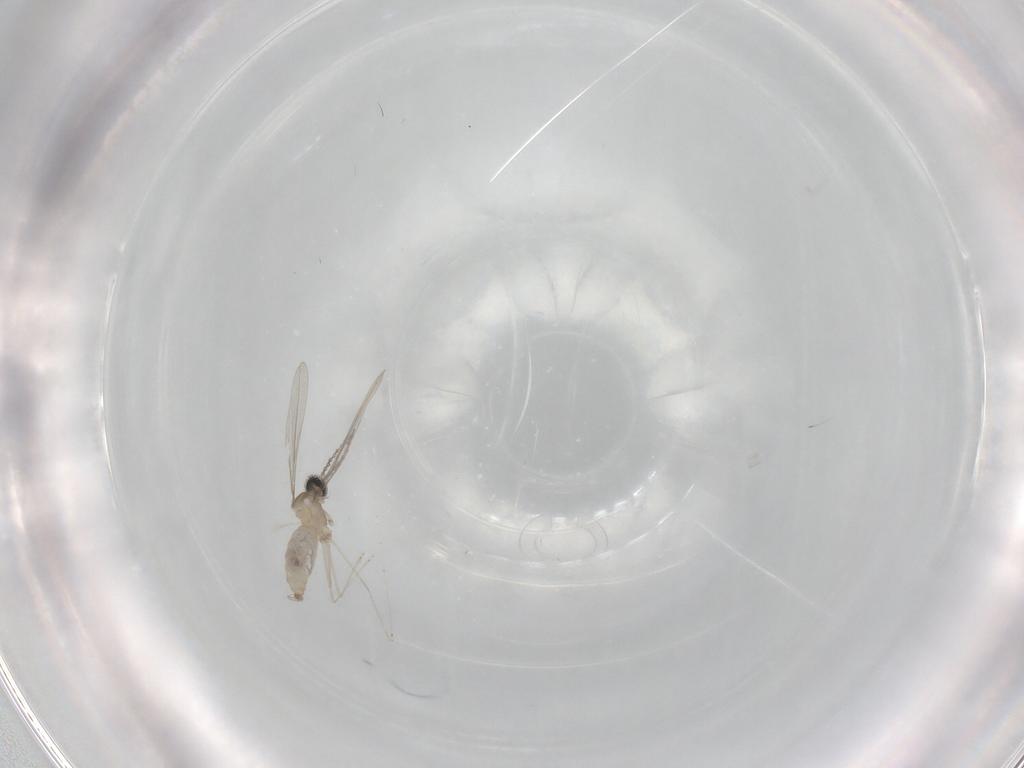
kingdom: Animalia
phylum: Arthropoda
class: Insecta
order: Diptera
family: Cecidomyiidae
